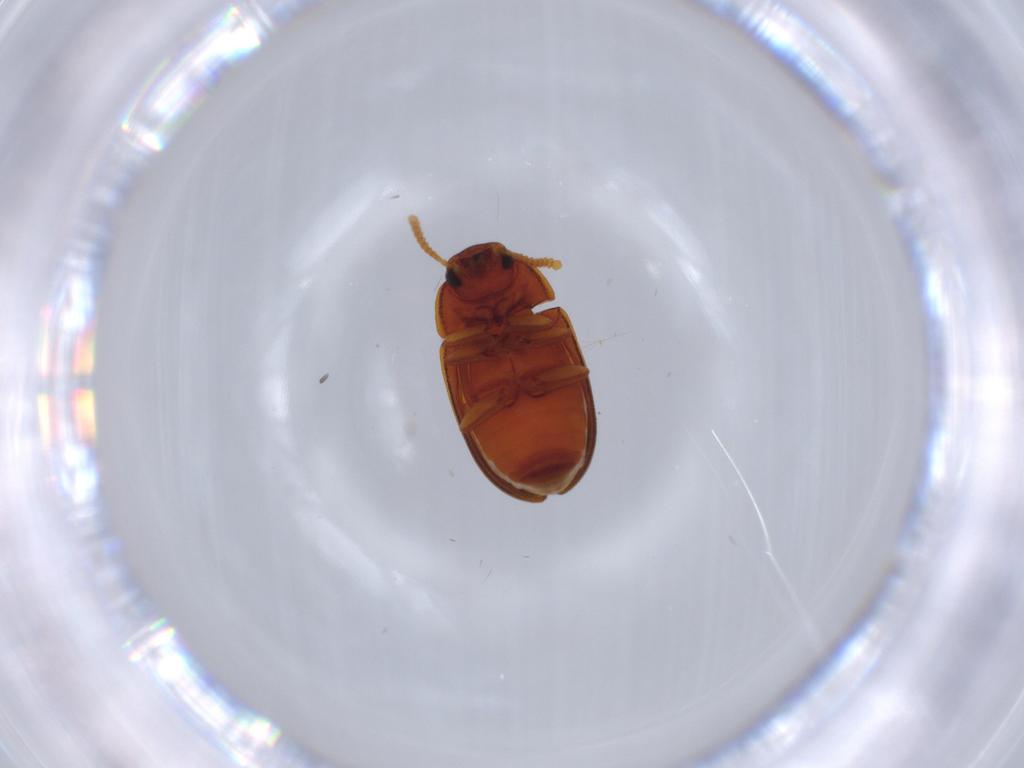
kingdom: Animalia
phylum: Arthropoda
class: Insecta
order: Coleoptera
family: Tenebrionidae
